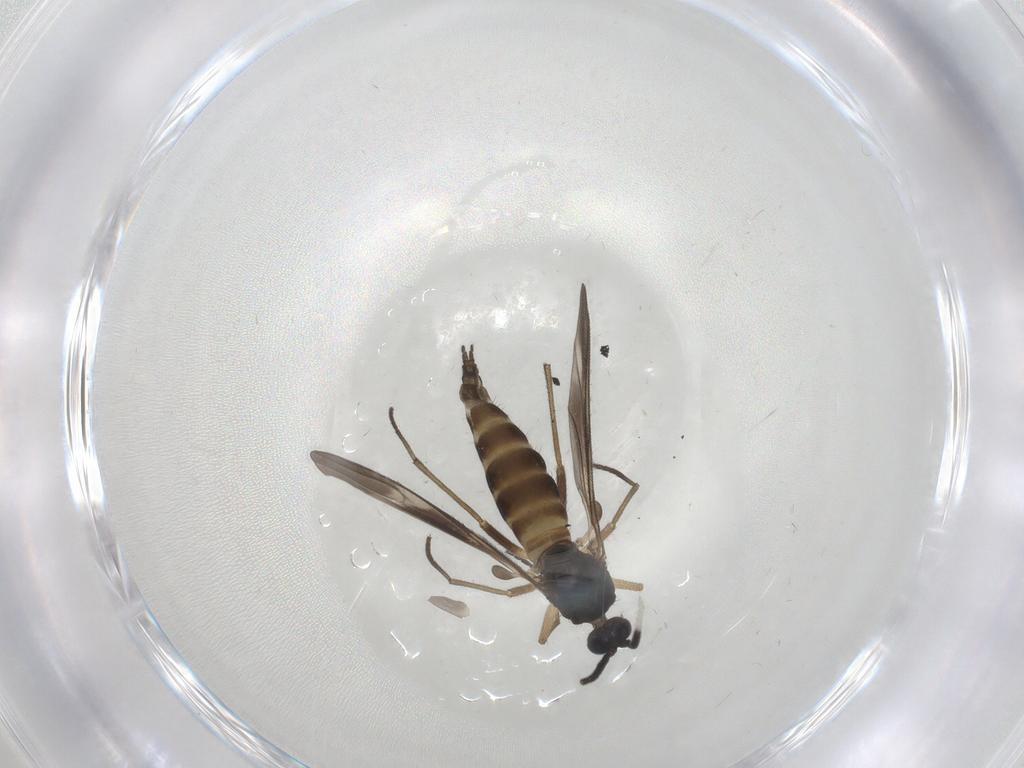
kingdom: Animalia
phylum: Arthropoda
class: Insecta
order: Diptera
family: Sciaridae
